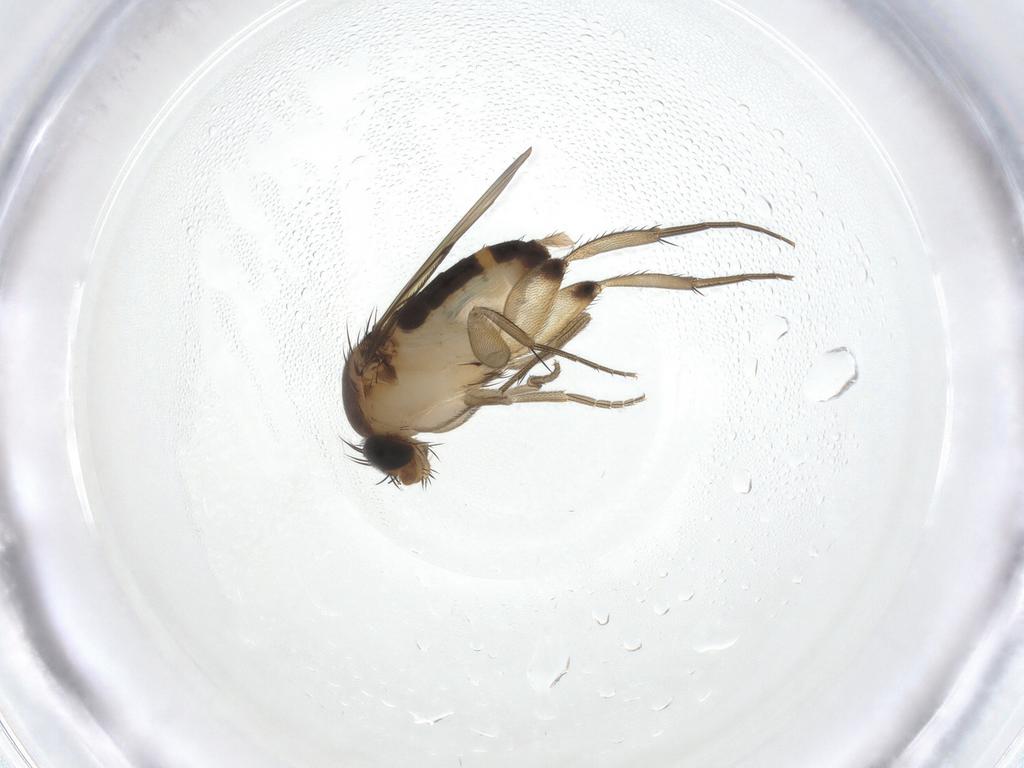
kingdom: Animalia
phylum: Arthropoda
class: Insecta
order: Diptera
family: Phoridae
